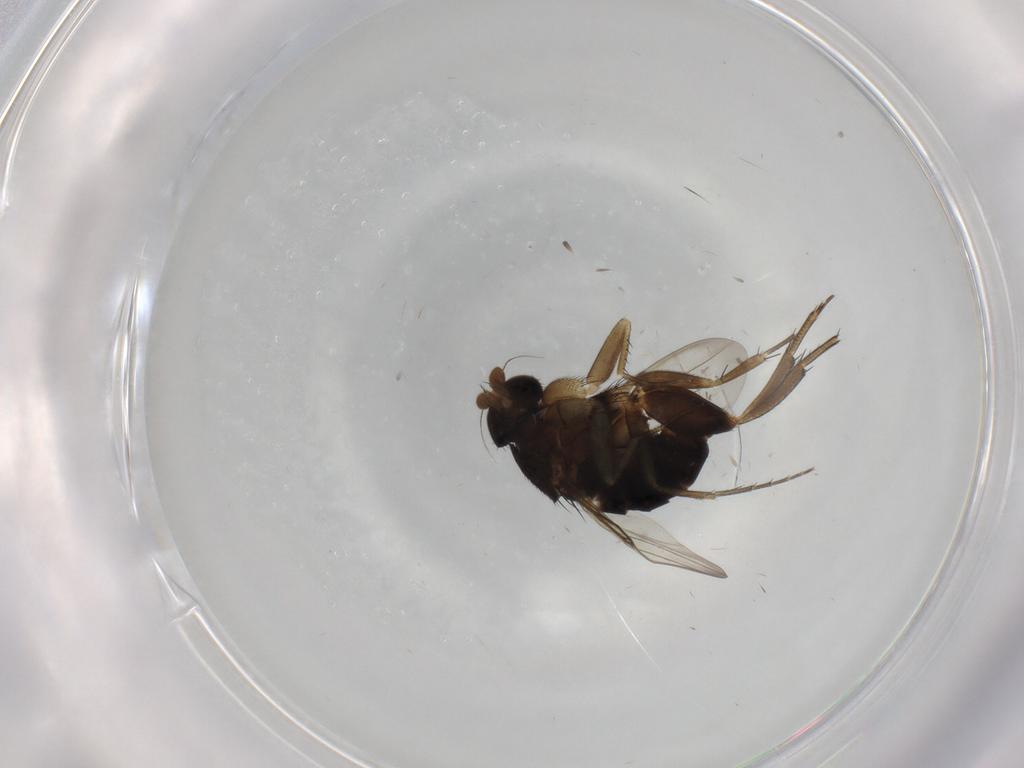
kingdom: Animalia
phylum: Arthropoda
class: Insecta
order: Diptera
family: Phoridae
